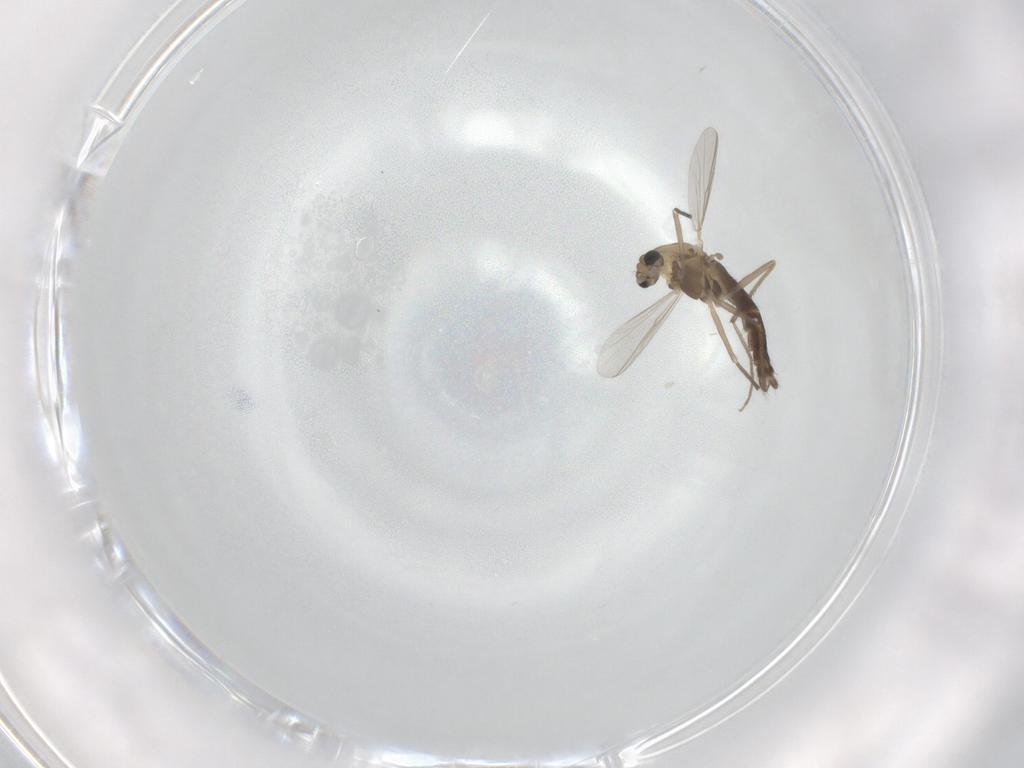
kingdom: Animalia
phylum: Arthropoda
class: Insecta
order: Diptera
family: Chironomidae
